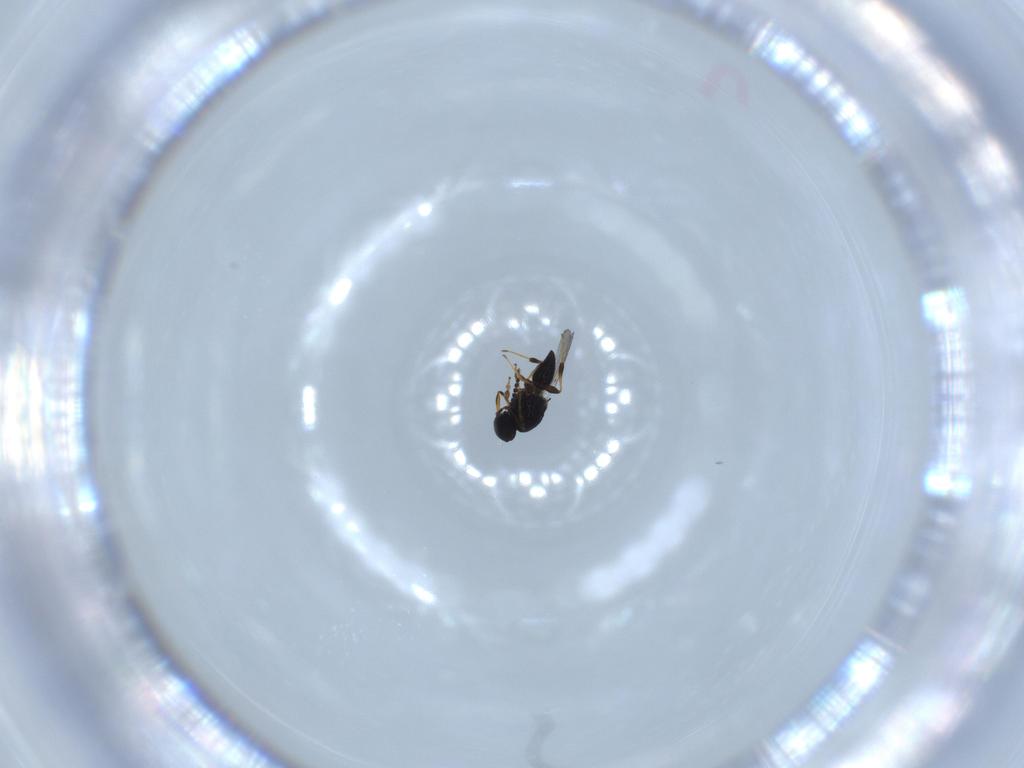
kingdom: Animalia
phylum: Arthropoda
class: Insecta
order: Hymenoptera
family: Platygastridae
